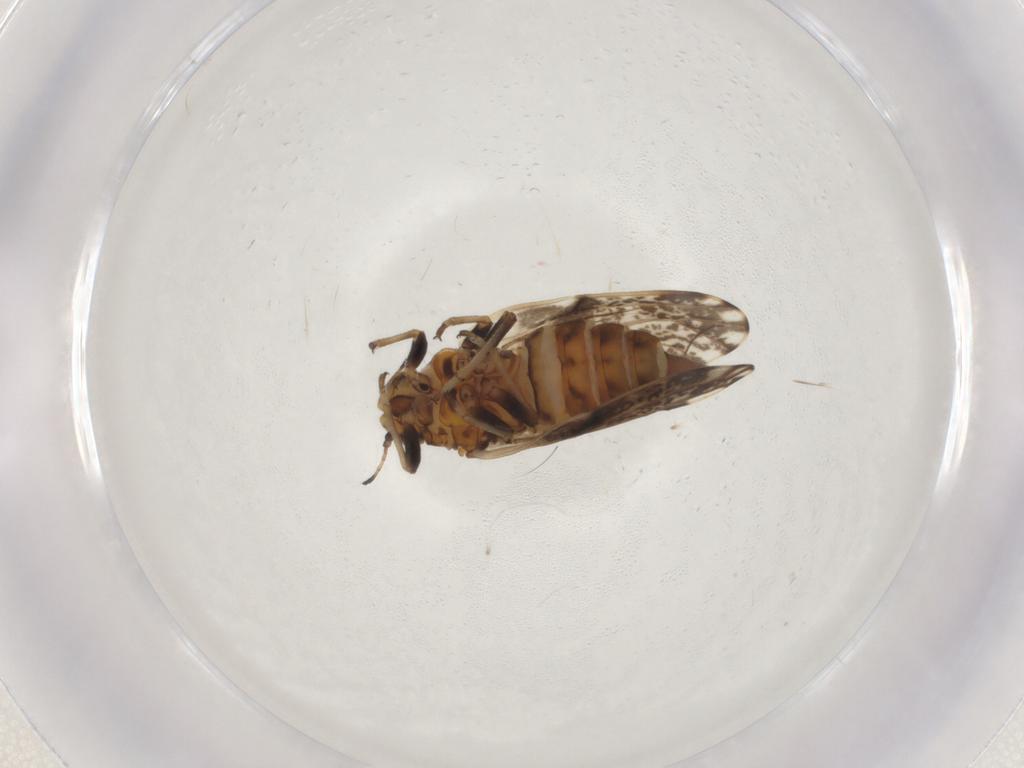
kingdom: Animalia
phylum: Arthropoda
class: Insecta
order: Hemiptera
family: Psylloidea_incertae_sedis
